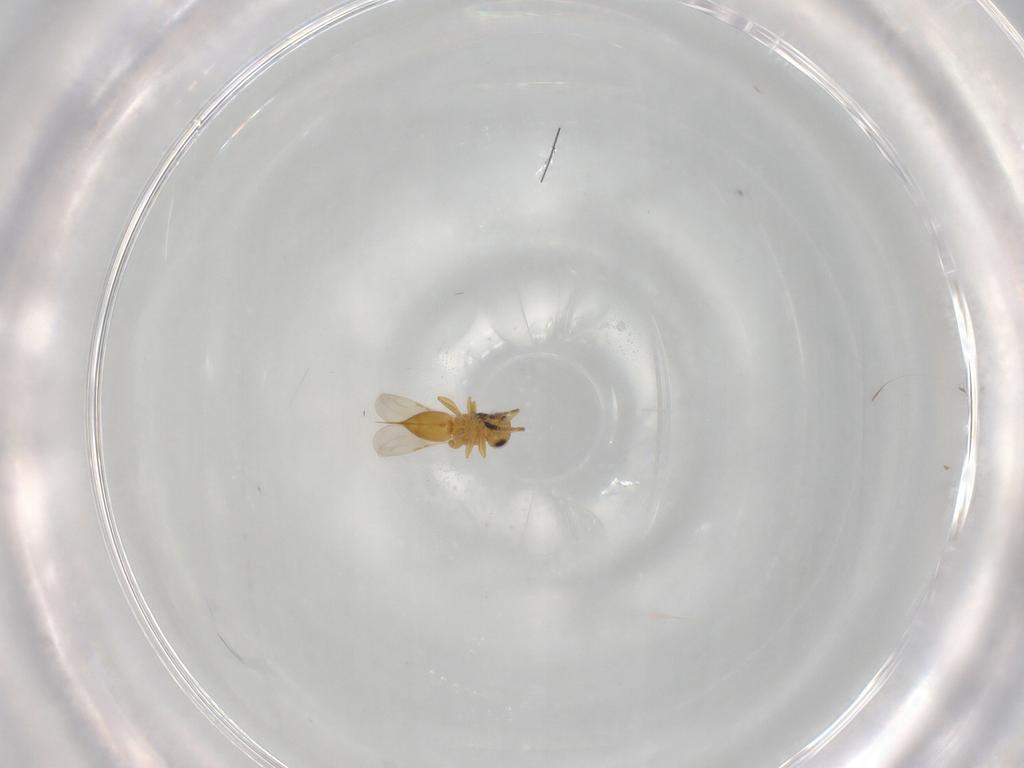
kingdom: Animalia
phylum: Arthropoda
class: Insecta
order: Hymenoptera
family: Ceraphronidae
